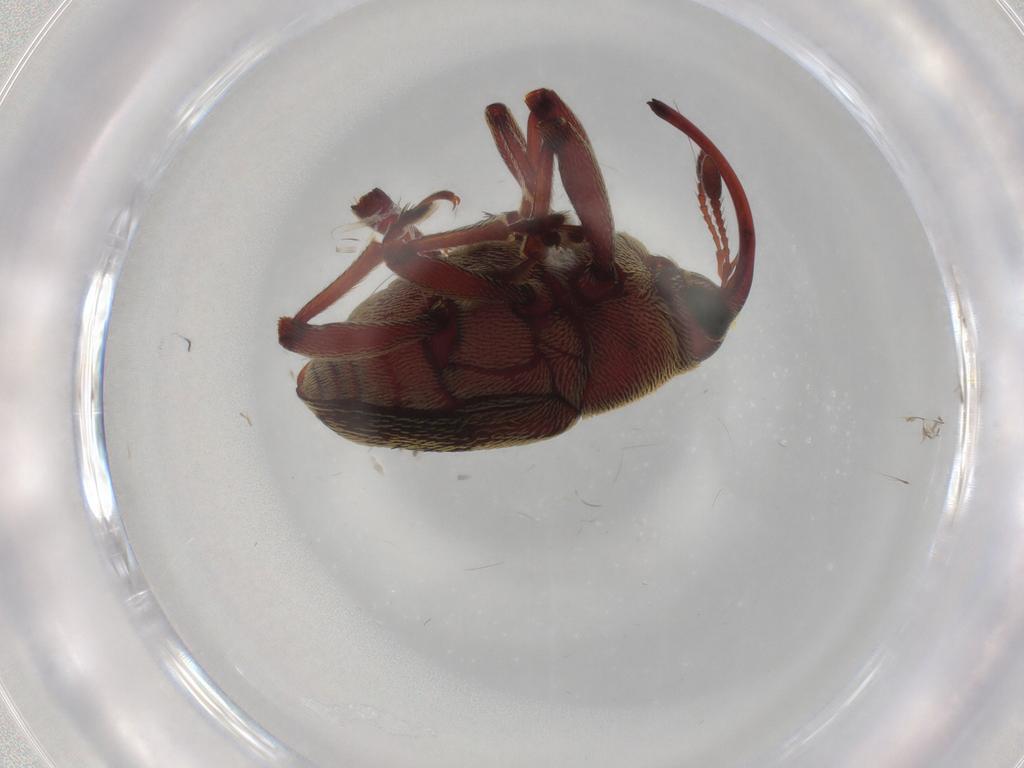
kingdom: Animalia
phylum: Arthropoda
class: Insecta
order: Coleoptera
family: Curculionidae
